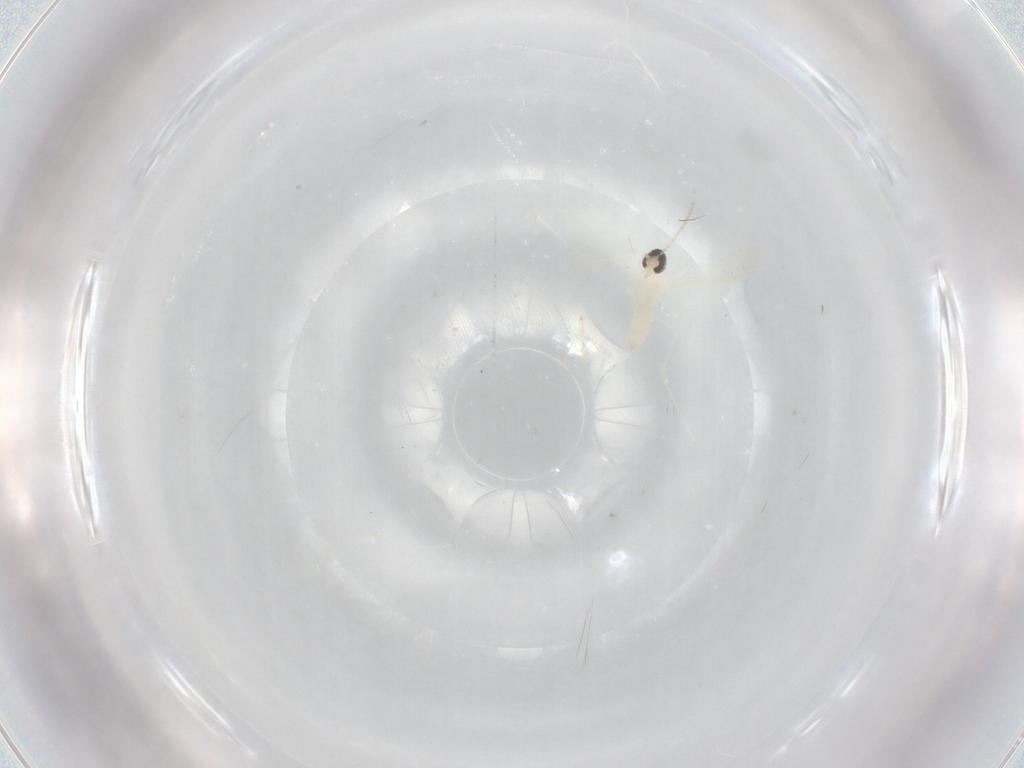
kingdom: Animalia
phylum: Arthropoda
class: Insecta
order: Diptera
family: Cecidomyiidae
